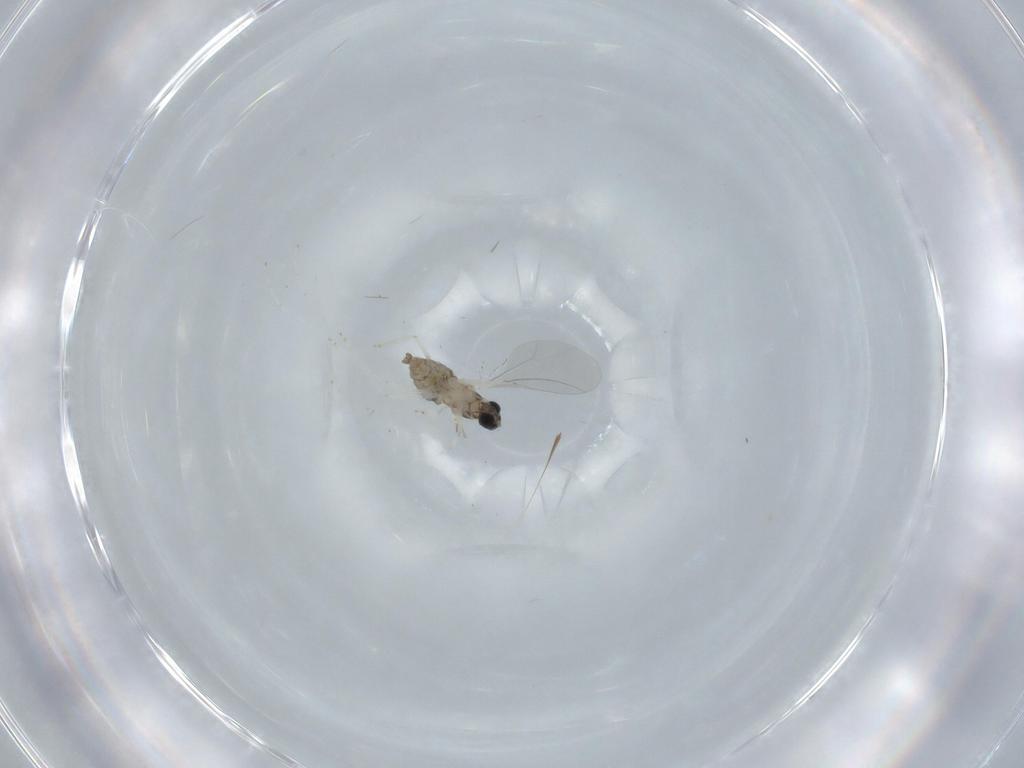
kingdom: Animalia
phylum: Arthropoda
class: Insecta
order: Diptera
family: Cecidomyiidae
